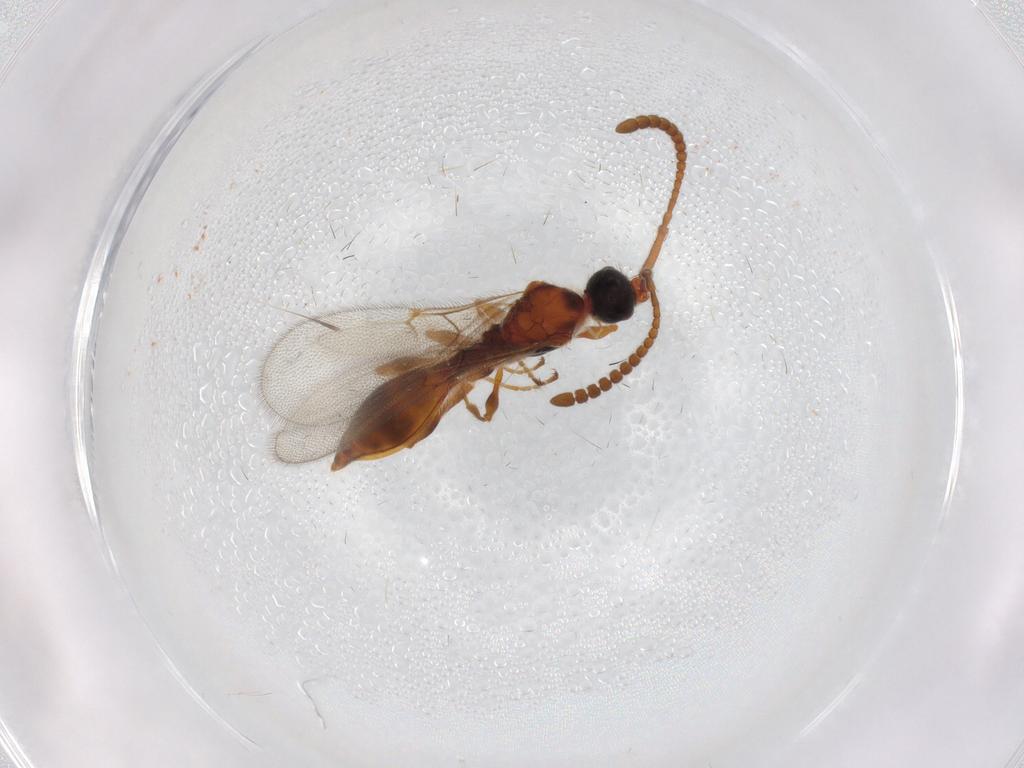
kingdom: Animalia
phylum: Arthropoda
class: Insecta
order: Hymenoptera
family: Diapriidae
